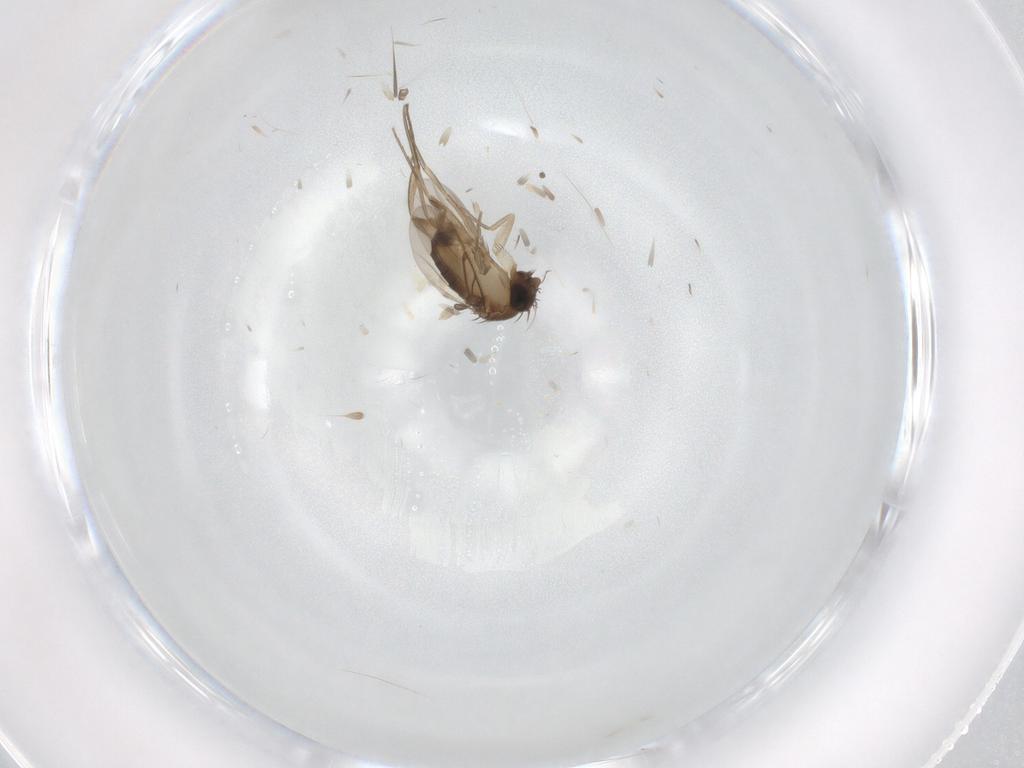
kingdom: Animalia
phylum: Arthropoda
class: Insecta
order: Diptera
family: Phoridae
